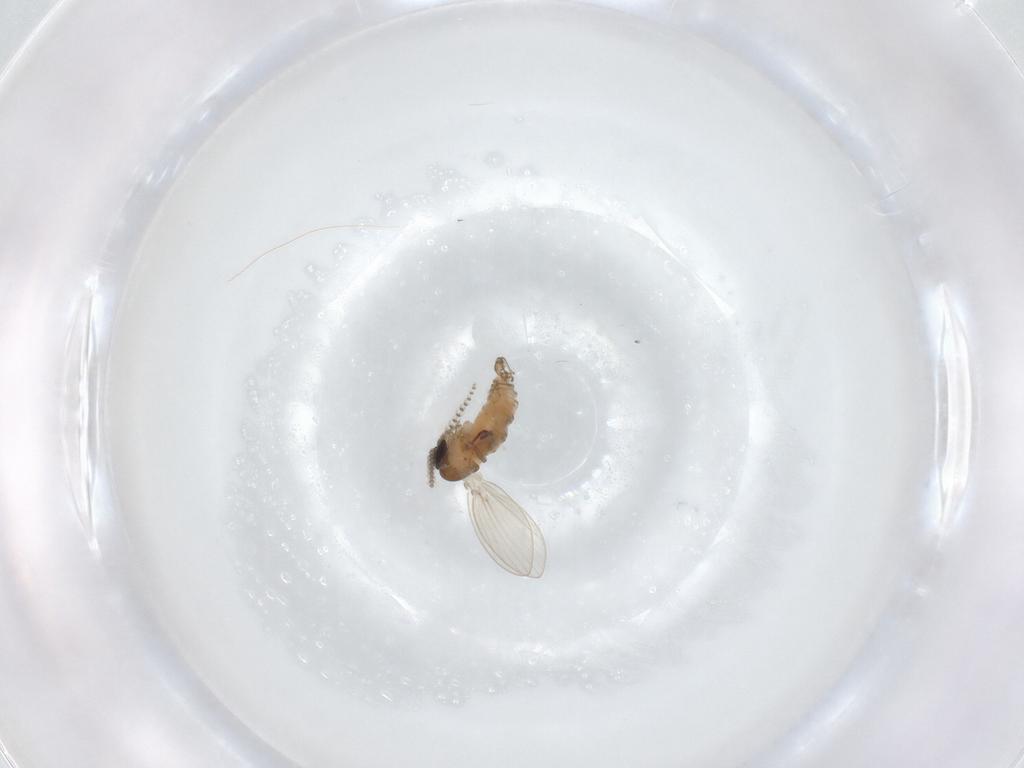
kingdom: Animalia
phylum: Arthropoda
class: Insecta
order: Diptera
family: Psychodidae
